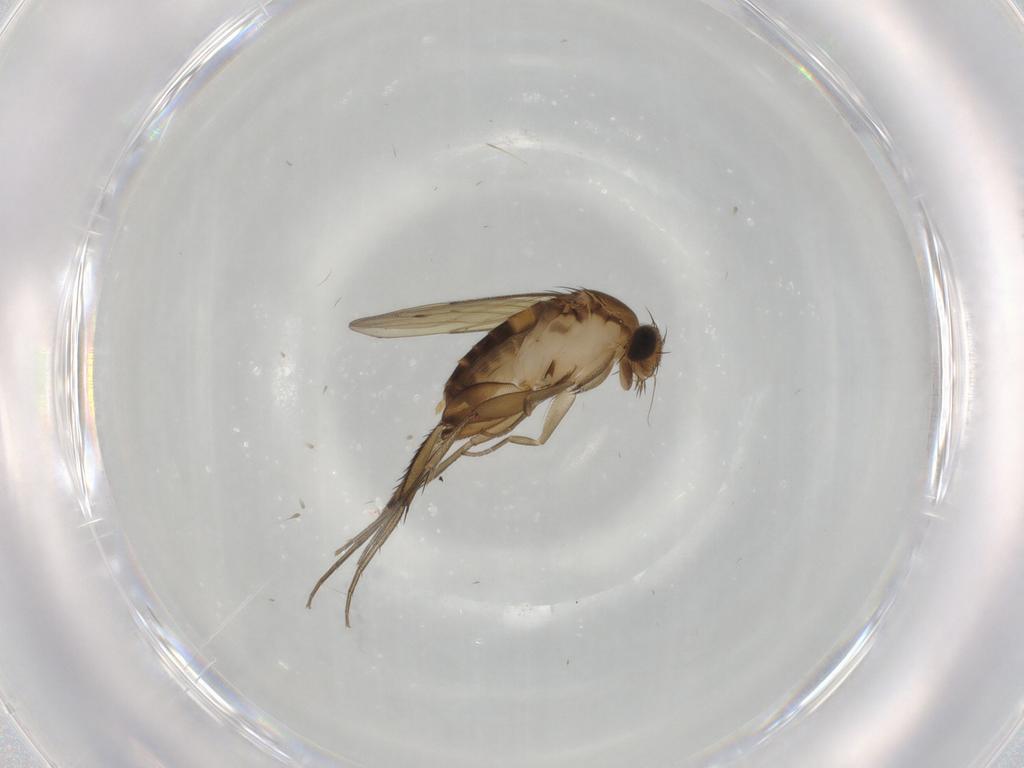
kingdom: Animalia
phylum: Arthropoda
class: Insecta
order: Diptera
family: Phoridae
